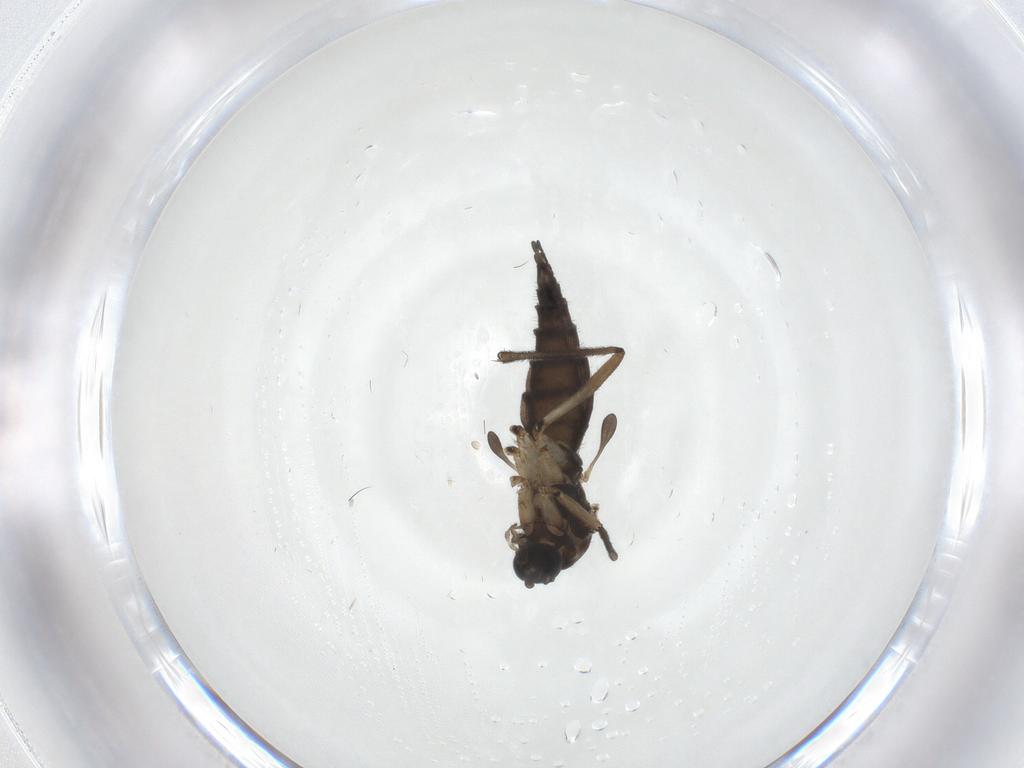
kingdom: Animalia
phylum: Arthropoda
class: Insecta
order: Diptera
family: Sciaridae
